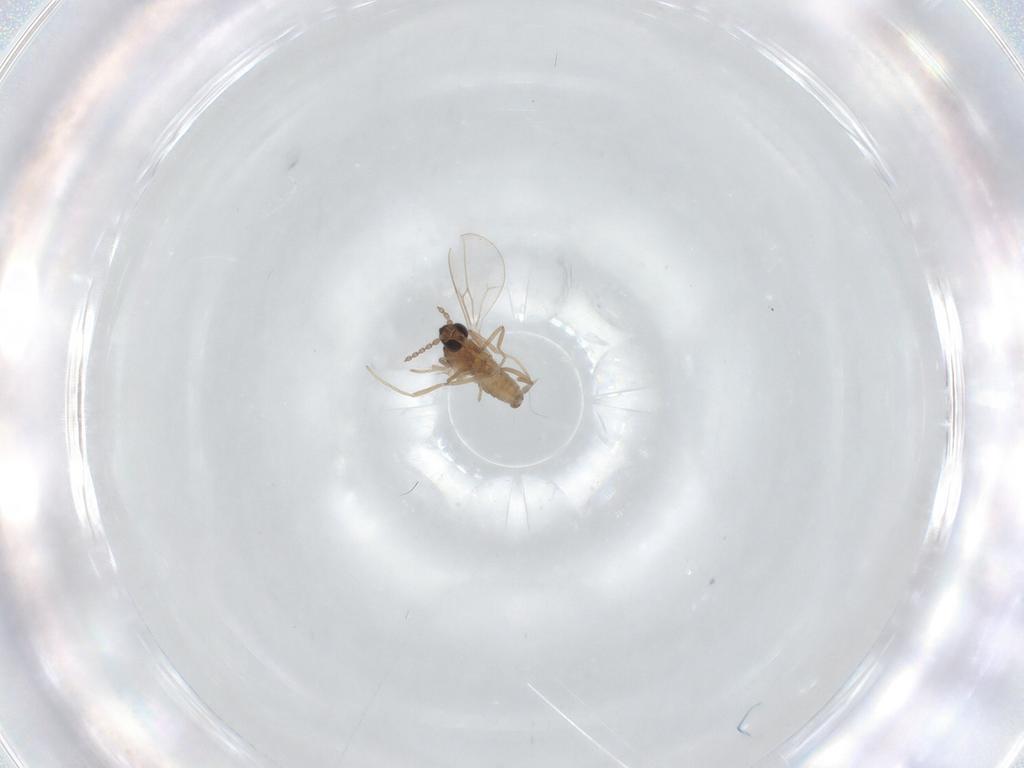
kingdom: Animalia
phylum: Arthropoda
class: Insecta
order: Diptera
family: Cecidomyiidae
